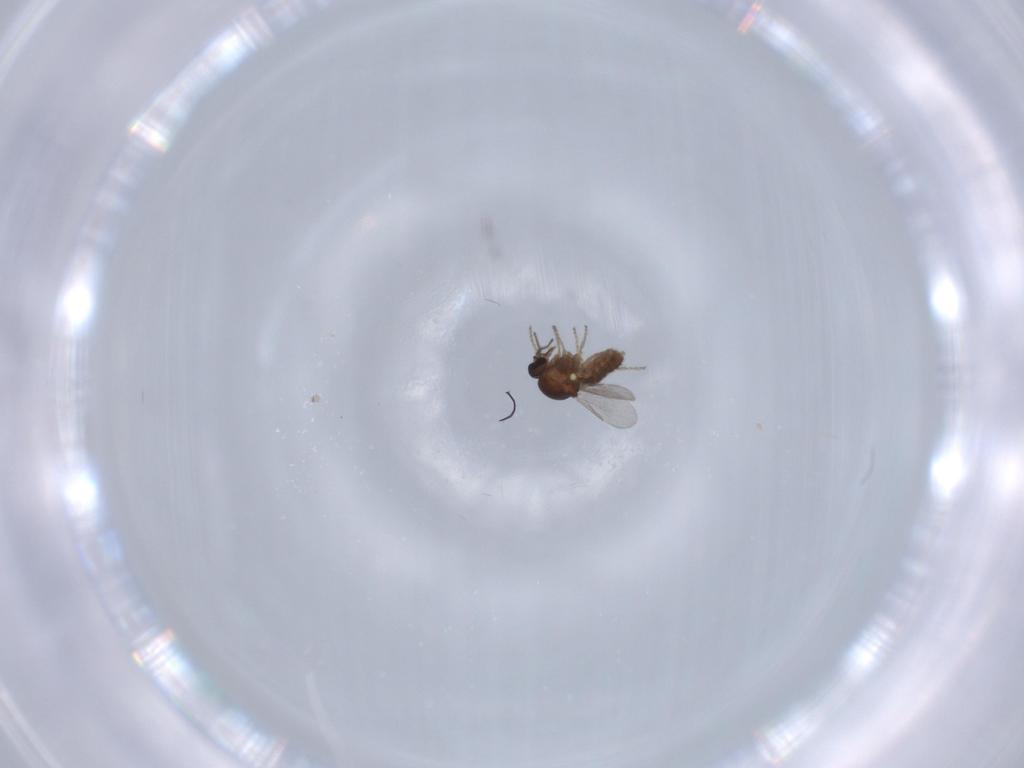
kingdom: Animalia
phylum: Arthropoda
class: Insecta
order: Diptera
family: Ceratopogonidae
